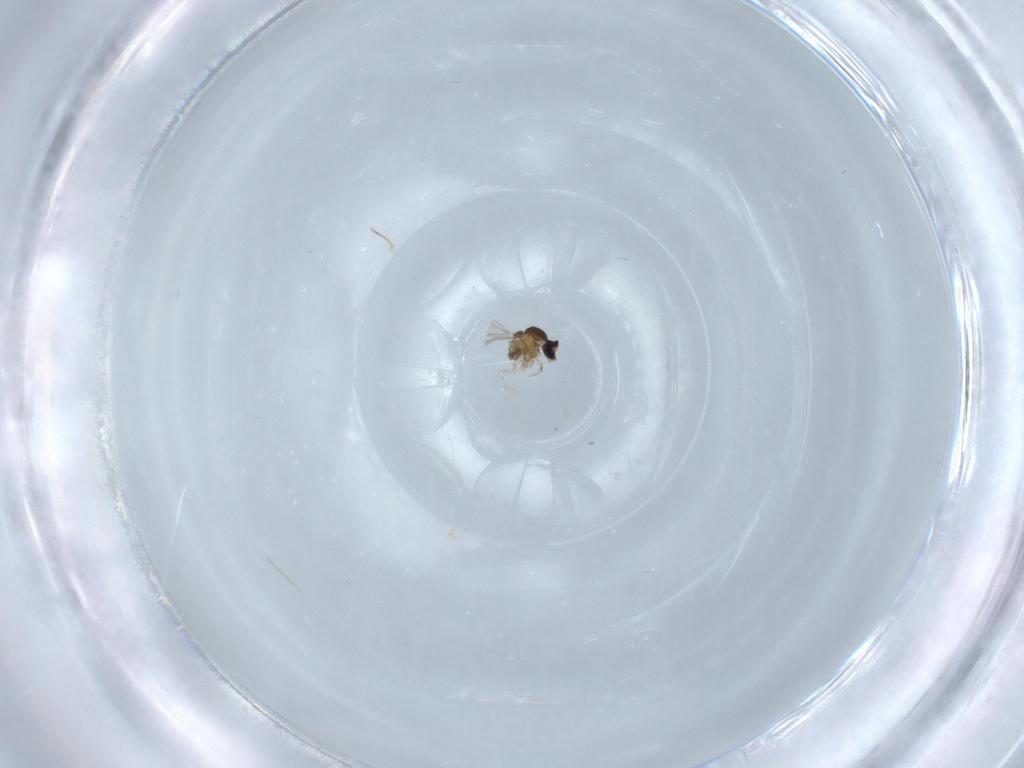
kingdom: Animalia
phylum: Arthropoda
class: Insecta
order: Diptera
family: Cecidomyiidae
